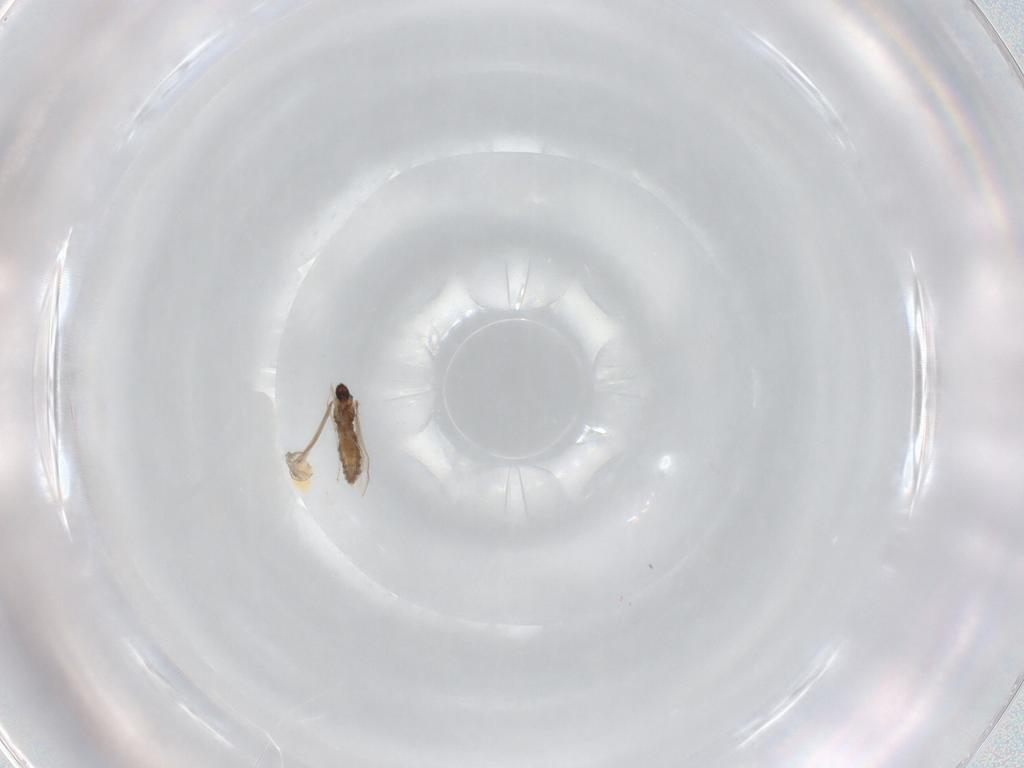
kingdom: Animalia
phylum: Arthropoda
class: Insecta
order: Diptera
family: Glossinidae
